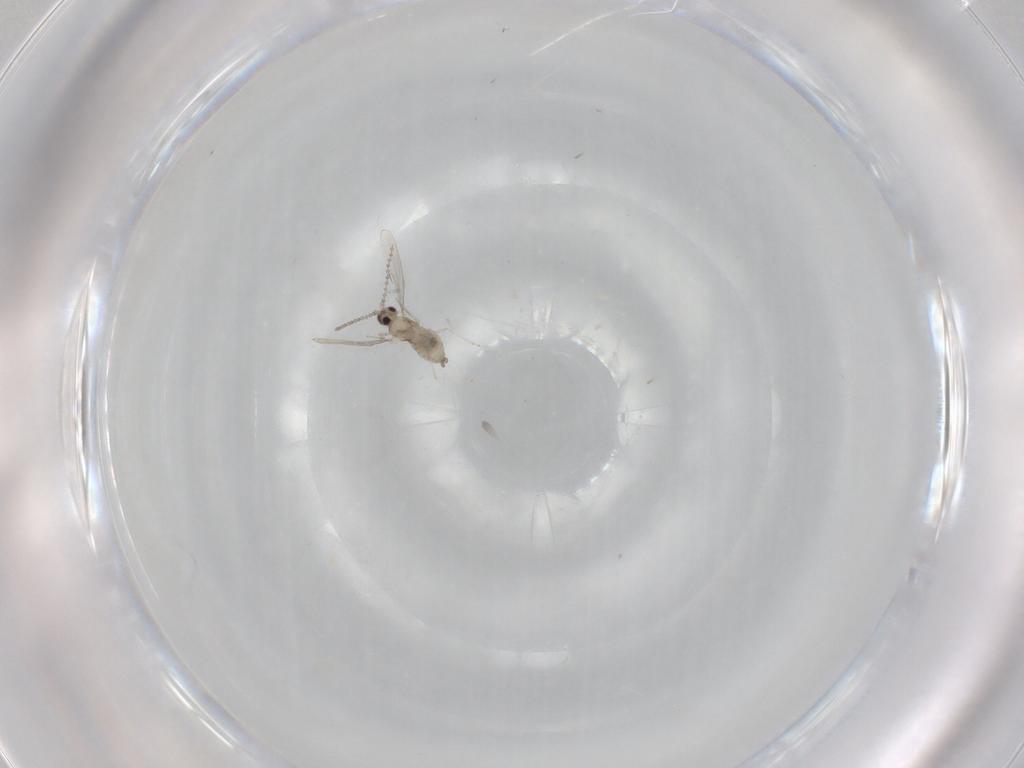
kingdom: Animalia
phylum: Arthropoda
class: Insecta
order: Diptera
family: Cecidomyiidae
